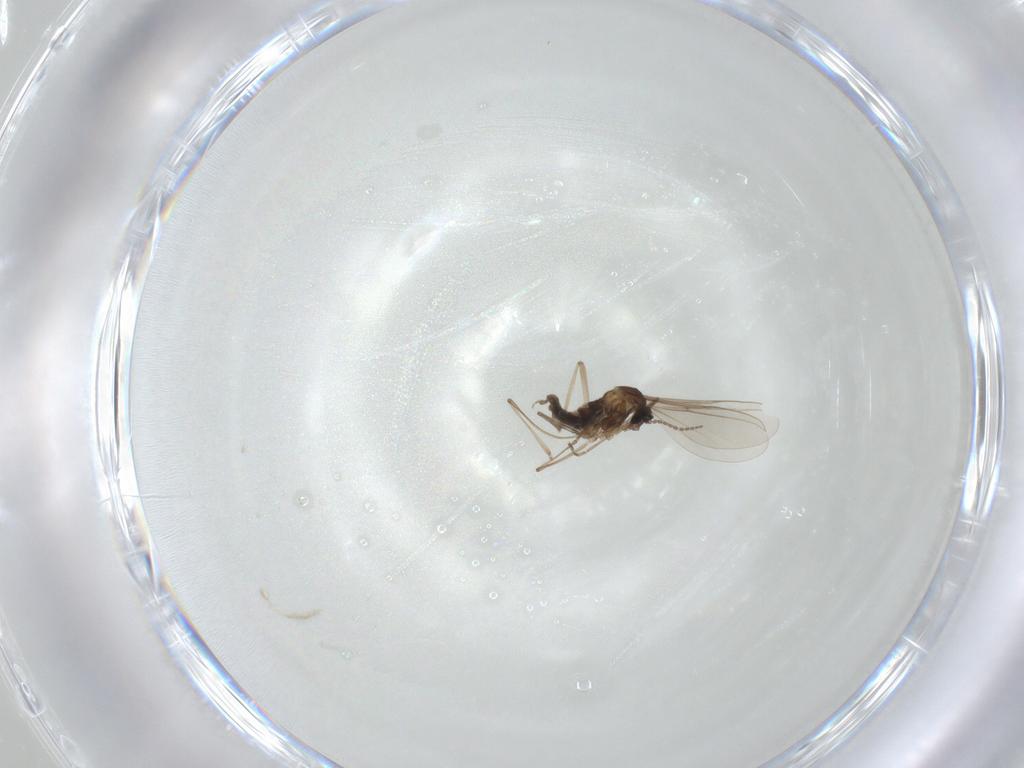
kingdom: Animalia
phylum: Arthropoda
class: Insecta
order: Diptera
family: Cecidomyiidae
